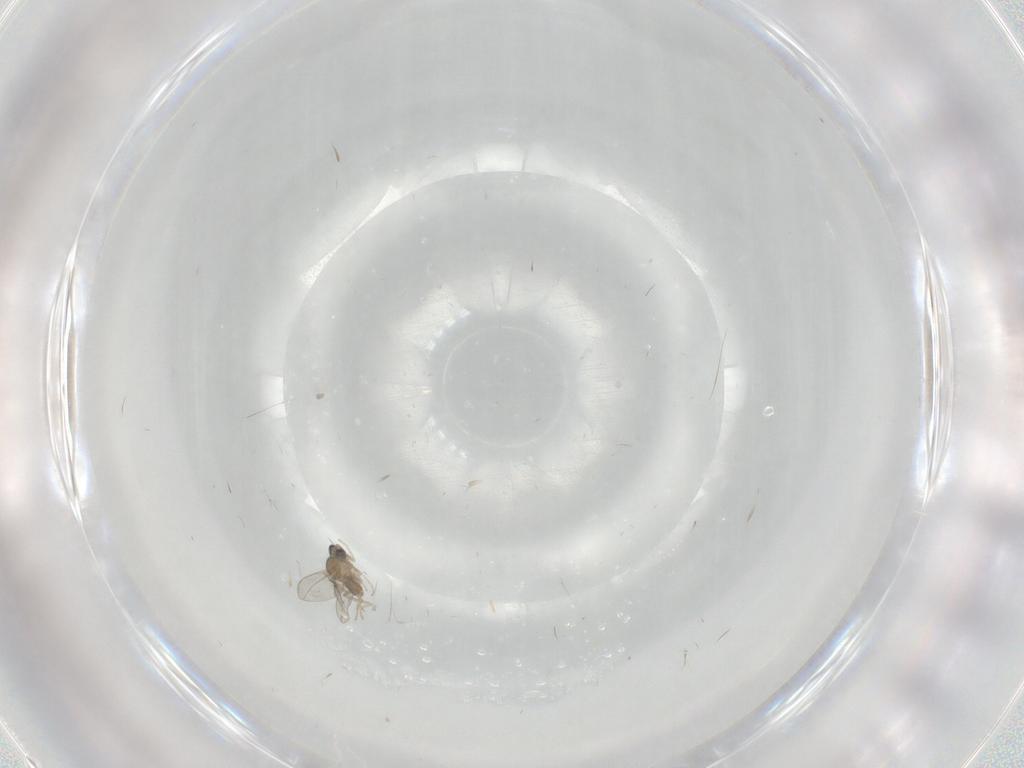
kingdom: Animalia
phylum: Arthropoda
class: Insecta
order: Diptera
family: Cecidomyiidae
